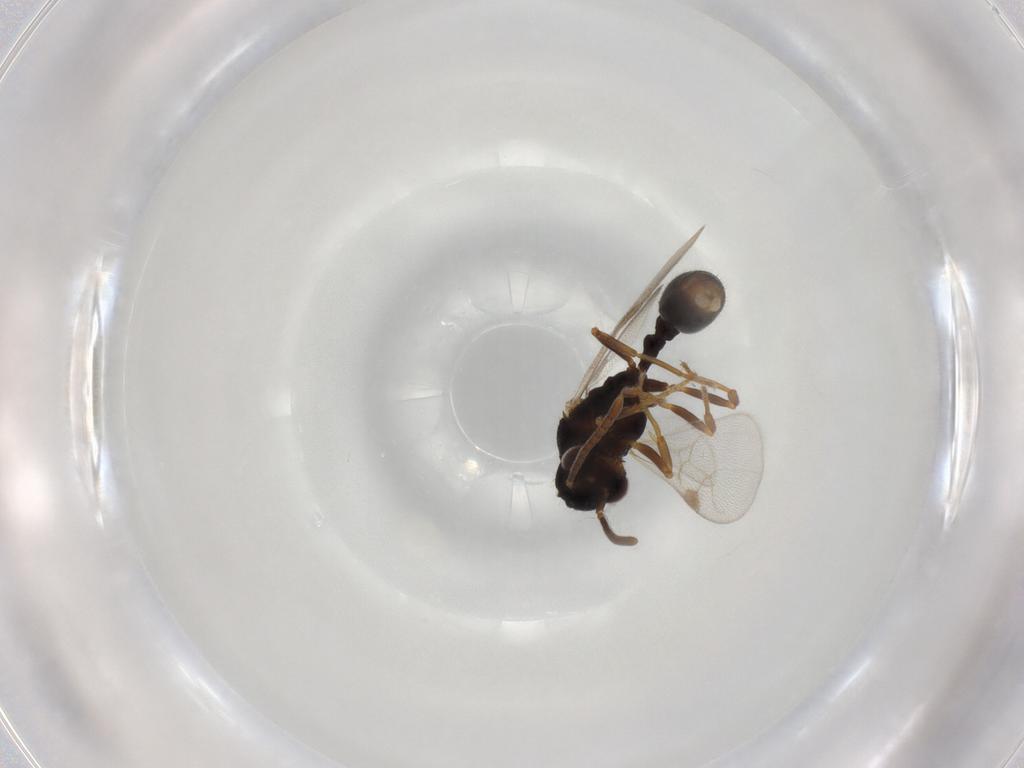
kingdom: Animalia
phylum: Arthropoda
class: Insecta
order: Hymenoptera
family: Formicidae
